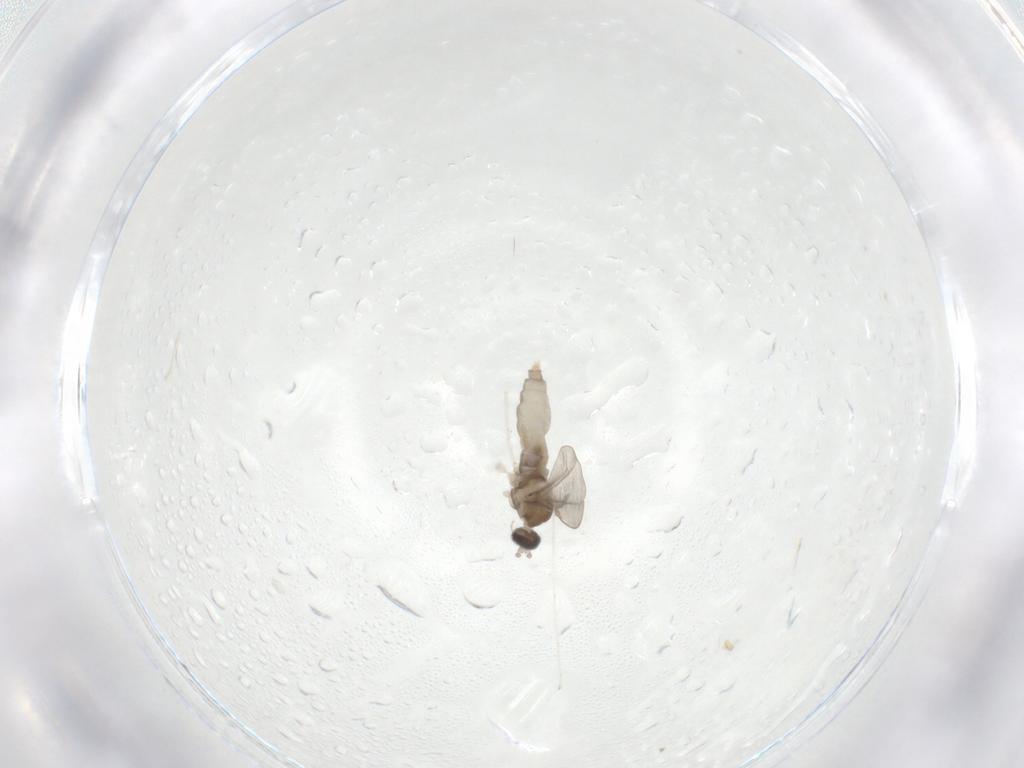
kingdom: Animalia
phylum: Arthropoda
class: Insecta
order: Diptera
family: Cecidomyiidae
